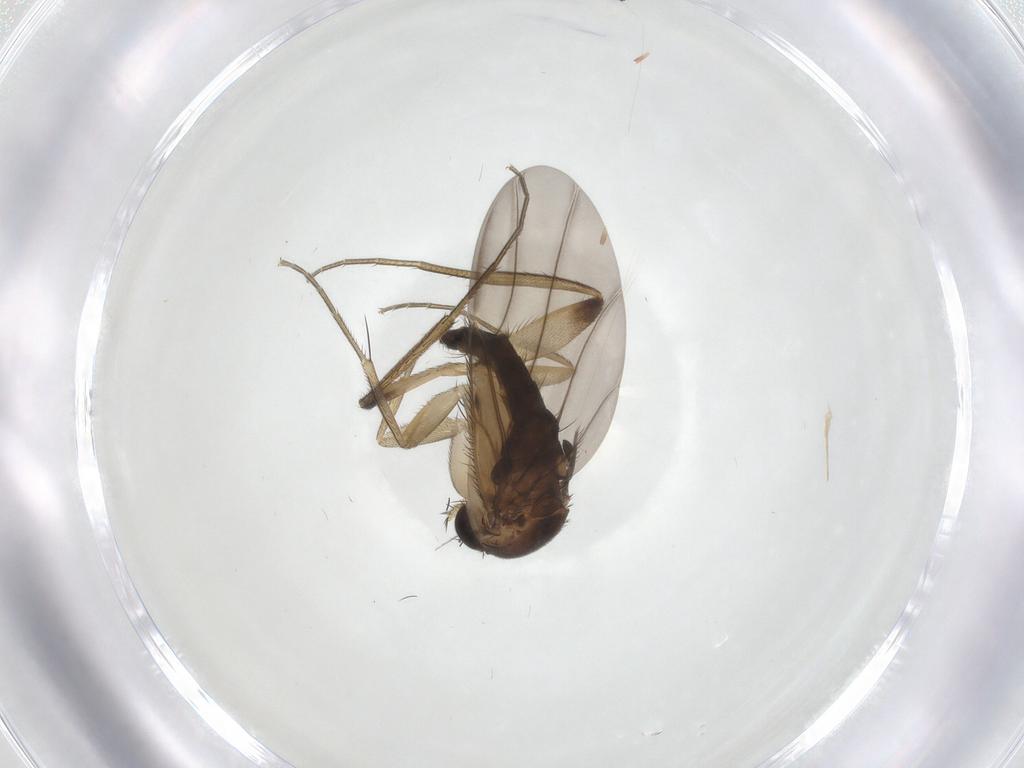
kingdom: Animalia
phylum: Arthropoda
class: Insecta
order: Diptera
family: Phoridae
